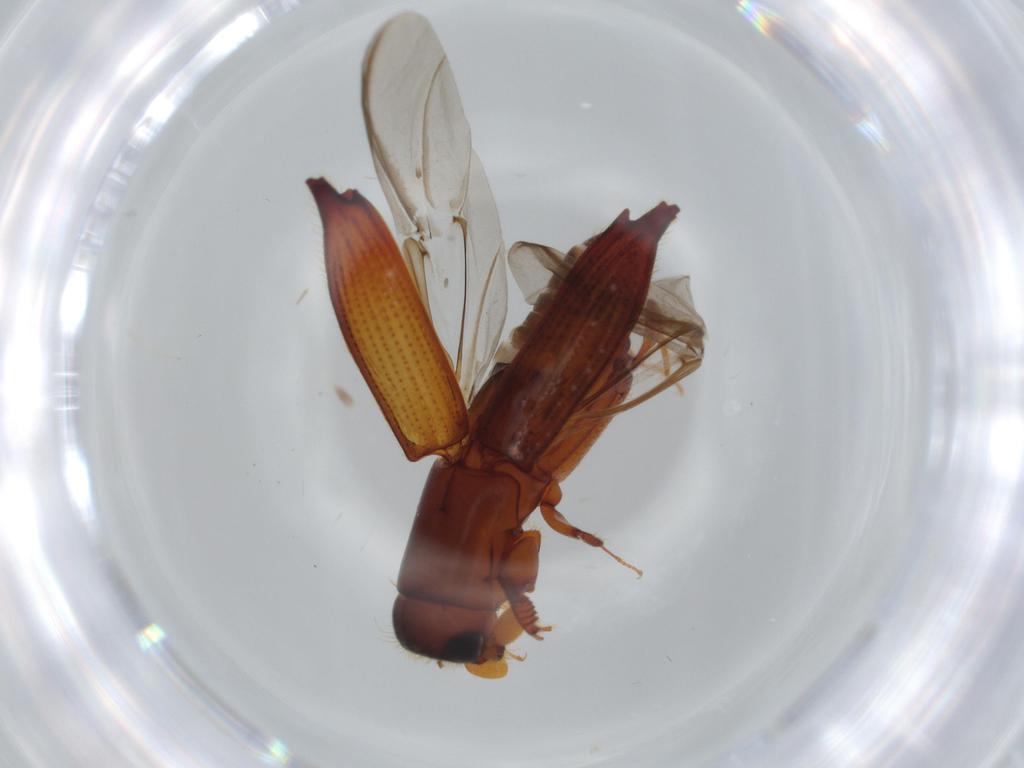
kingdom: Animalia
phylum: Arthropoda
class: Insecta
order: Coleoptera
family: Curculionidae
